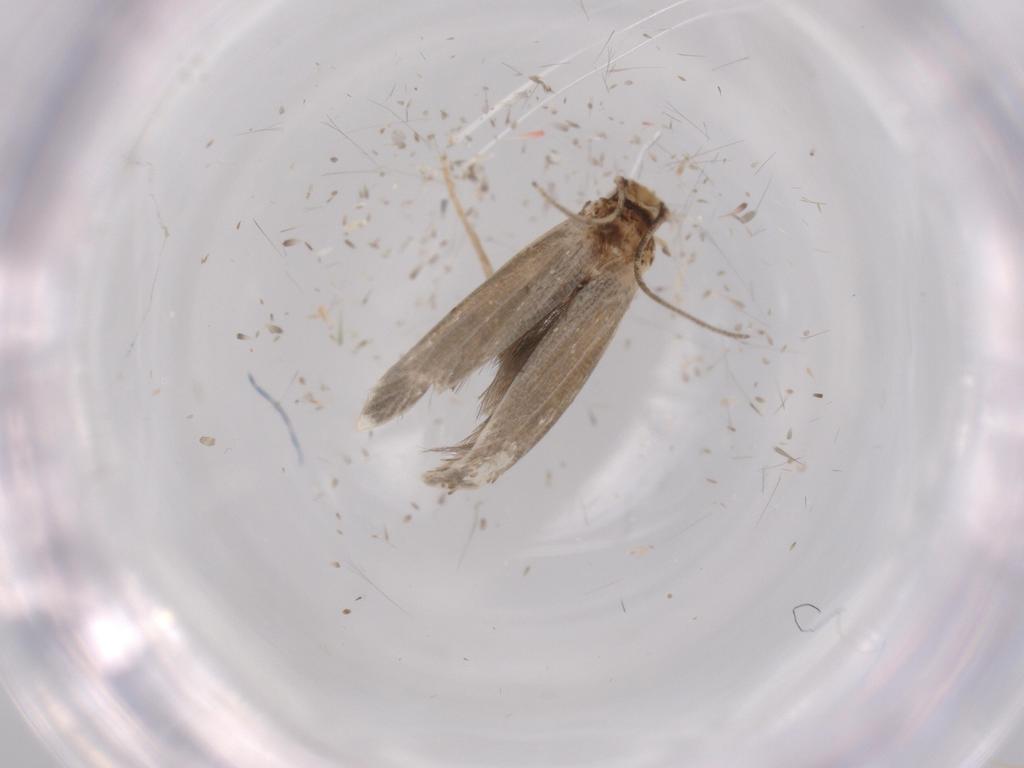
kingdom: Animalia
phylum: Arthropoda
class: Insecta
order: Lepidoptera
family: Tineidae
